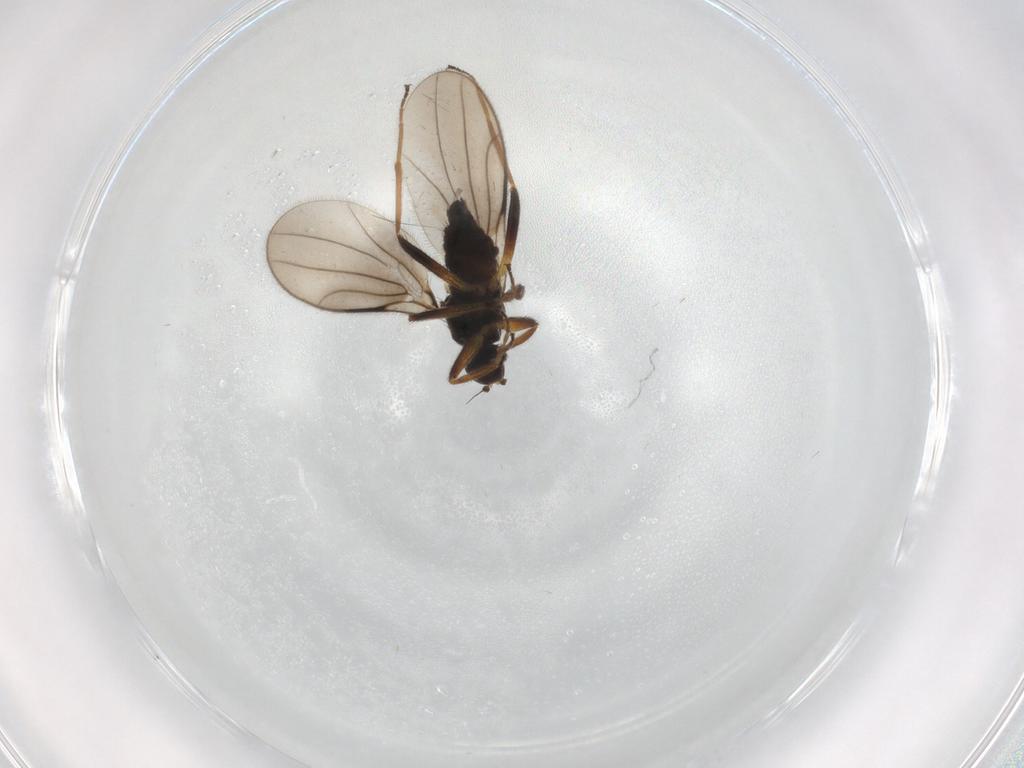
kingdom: Animalia
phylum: Arthropoda
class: Insecta
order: Diptera
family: Hybotidae
